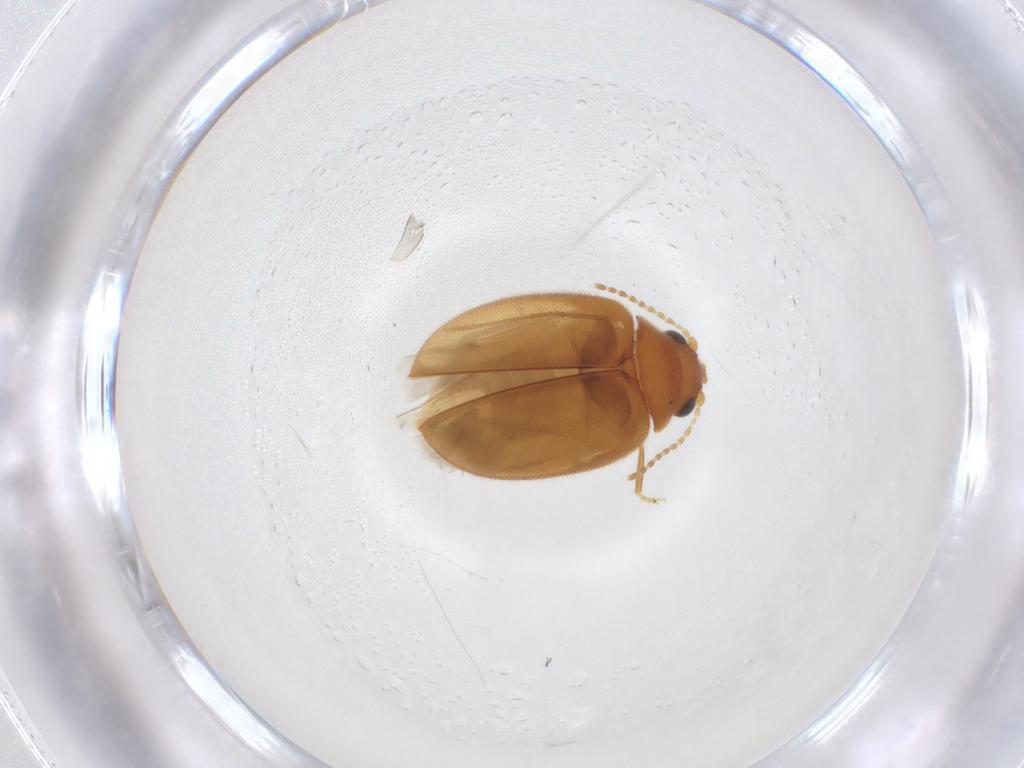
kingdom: Animalia
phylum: Arthropoda
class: Insecta
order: Coleoptera
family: Scirtidae
